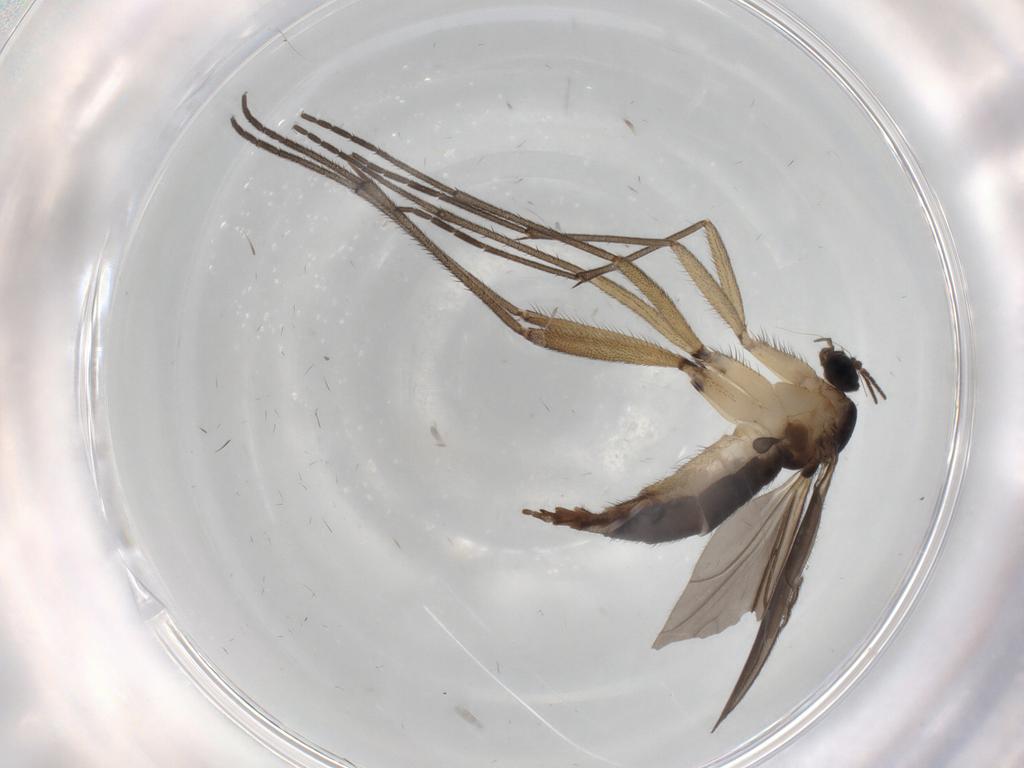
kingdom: Animalia
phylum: Arthropoda
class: Insecta
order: Diptera
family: Sciaridae
